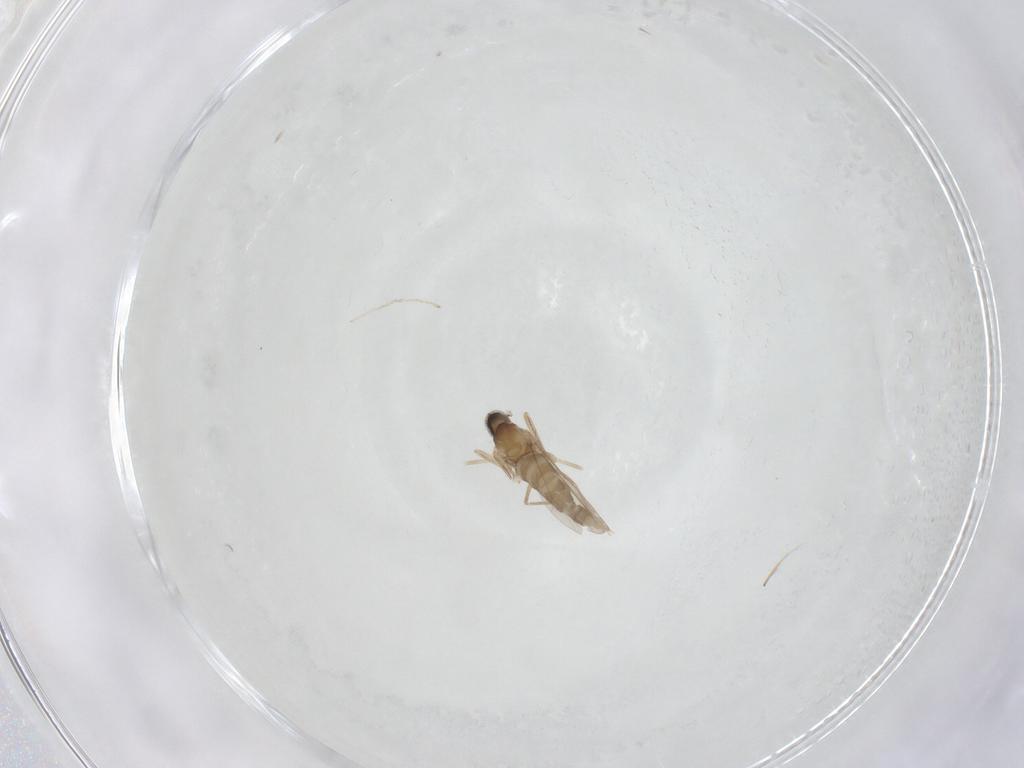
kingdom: Animalia
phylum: Arthropoda
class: Insecta
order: Diptera
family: Cecidomyiidae
